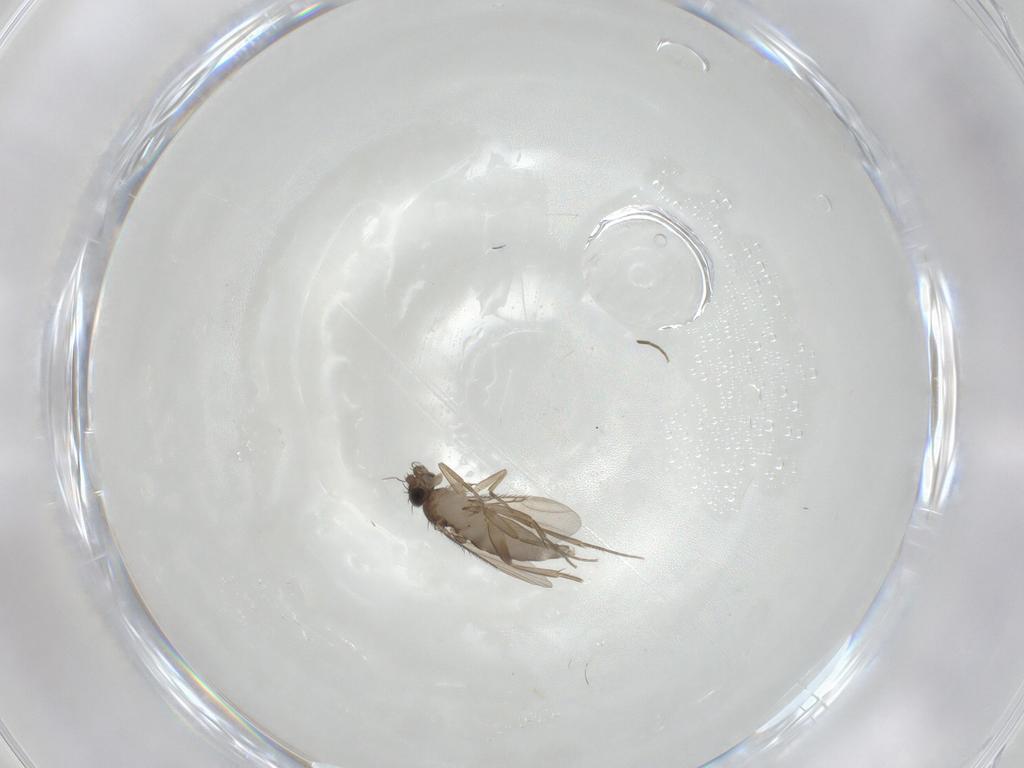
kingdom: Animalia
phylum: Arthropoda
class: Insecta
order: Diptera
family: Phoridae
